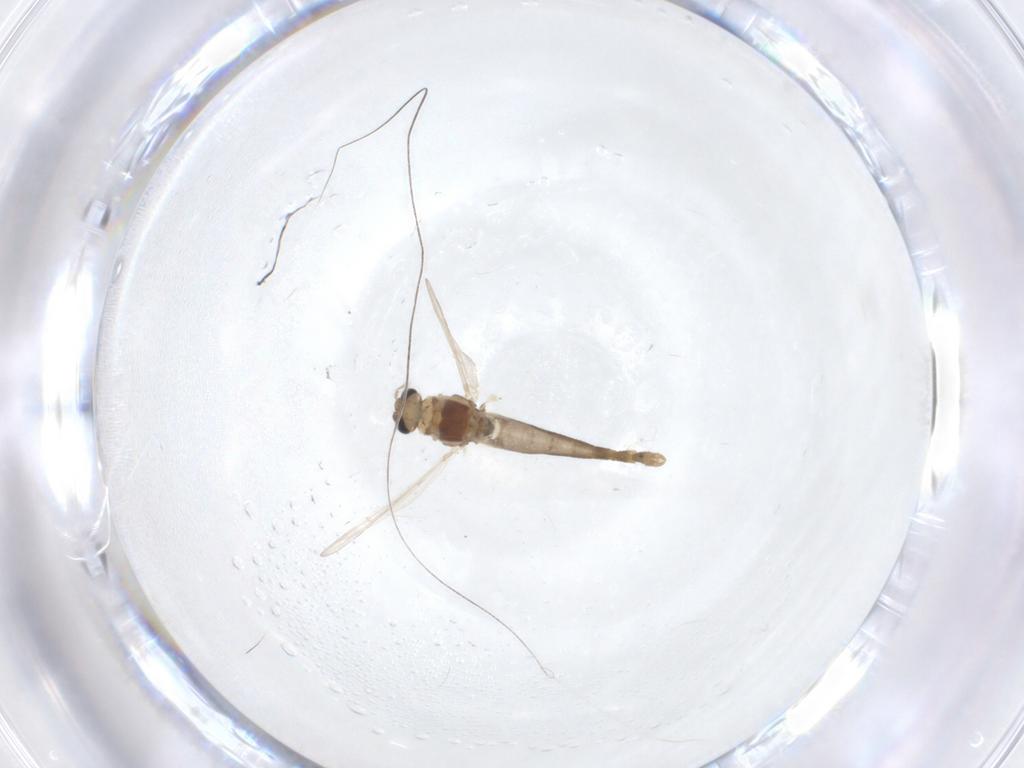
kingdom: Animalia
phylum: Arthropoda
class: Insecta
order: Diptera
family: Chironomidae
